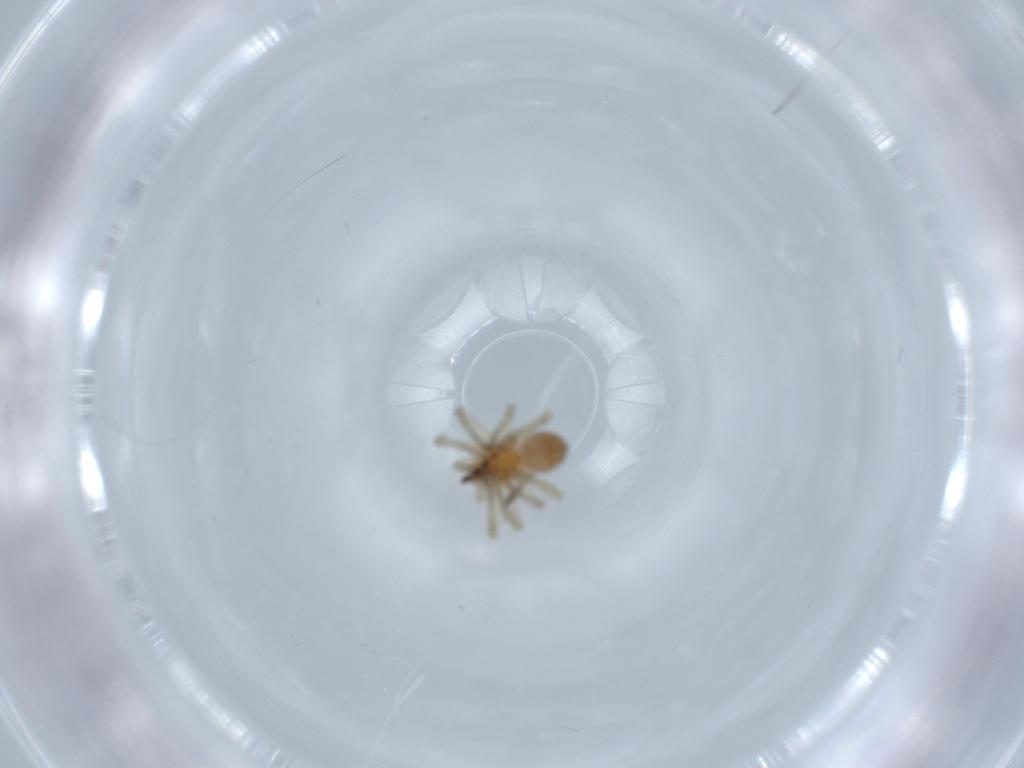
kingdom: Animalia
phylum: Arthropoda
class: Arachnida
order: Araneae
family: Dictynidae
